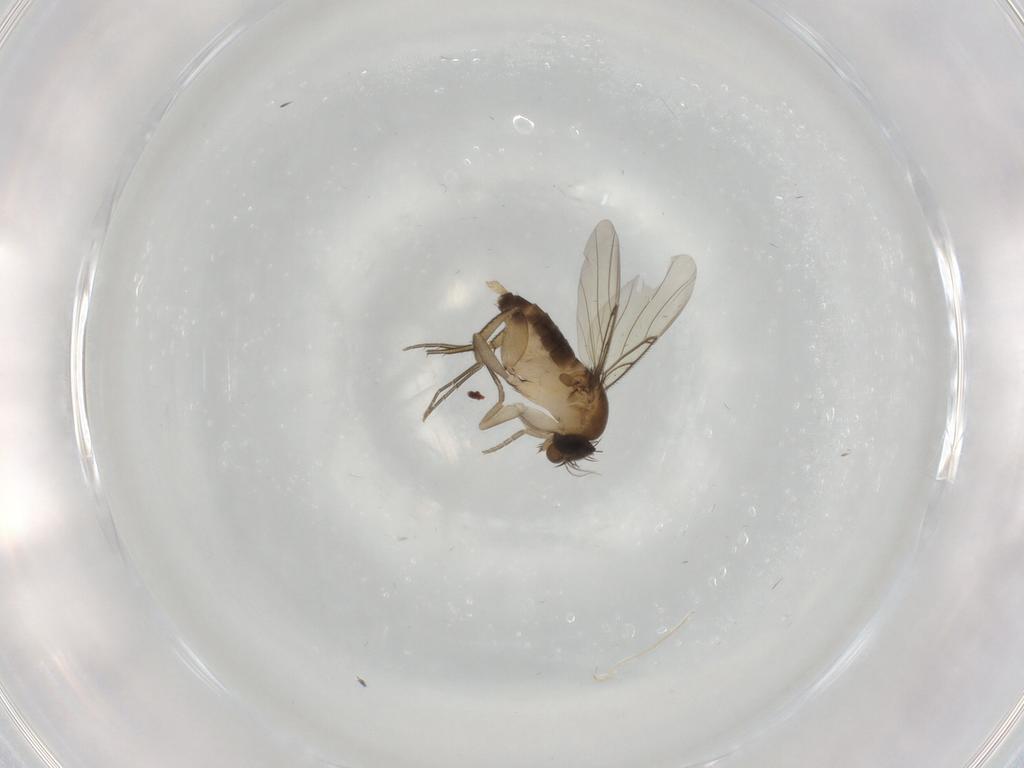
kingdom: Animalia
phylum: Arthropoda
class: Insecta
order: Diptera
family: Phoridae
